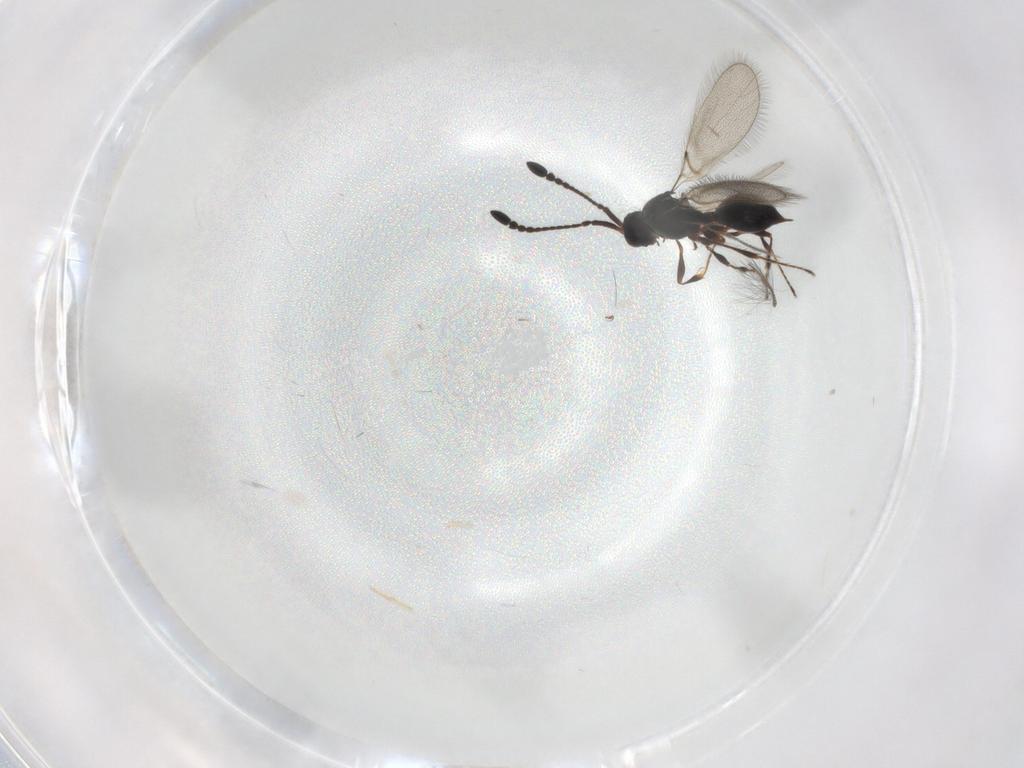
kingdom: Animalia
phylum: Arthropoda
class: Insecta
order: Hymenoptera
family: Diapriidae
